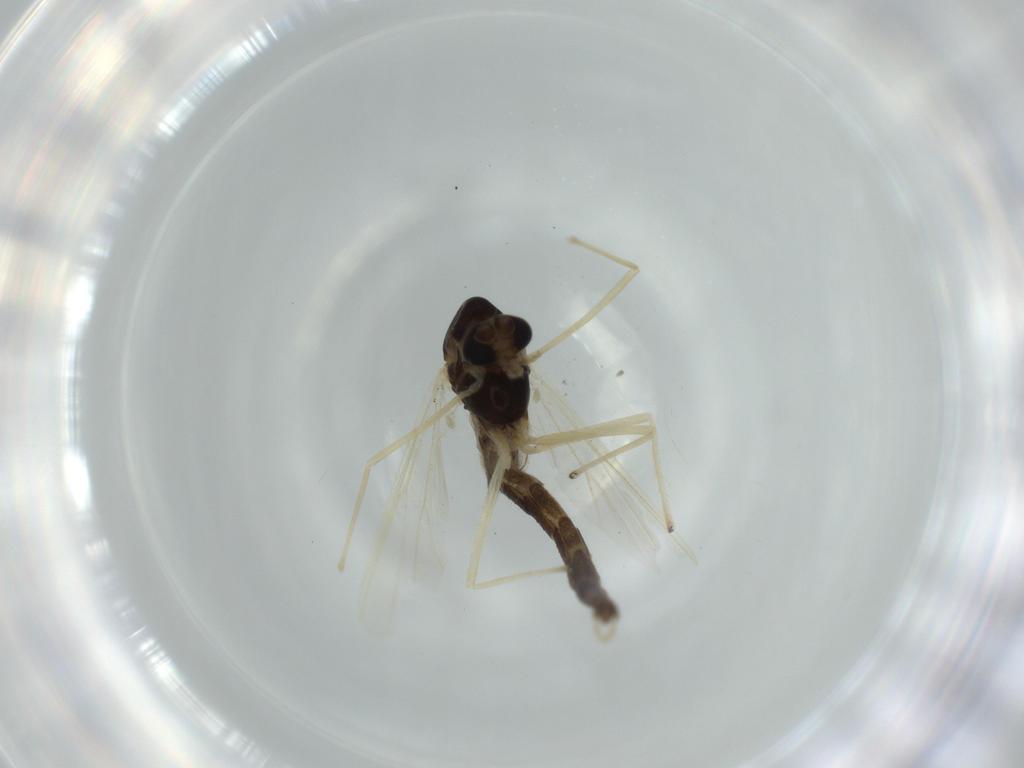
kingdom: Animalia
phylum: Arthropoda
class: Insecta
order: Diptera
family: Chironomidae
